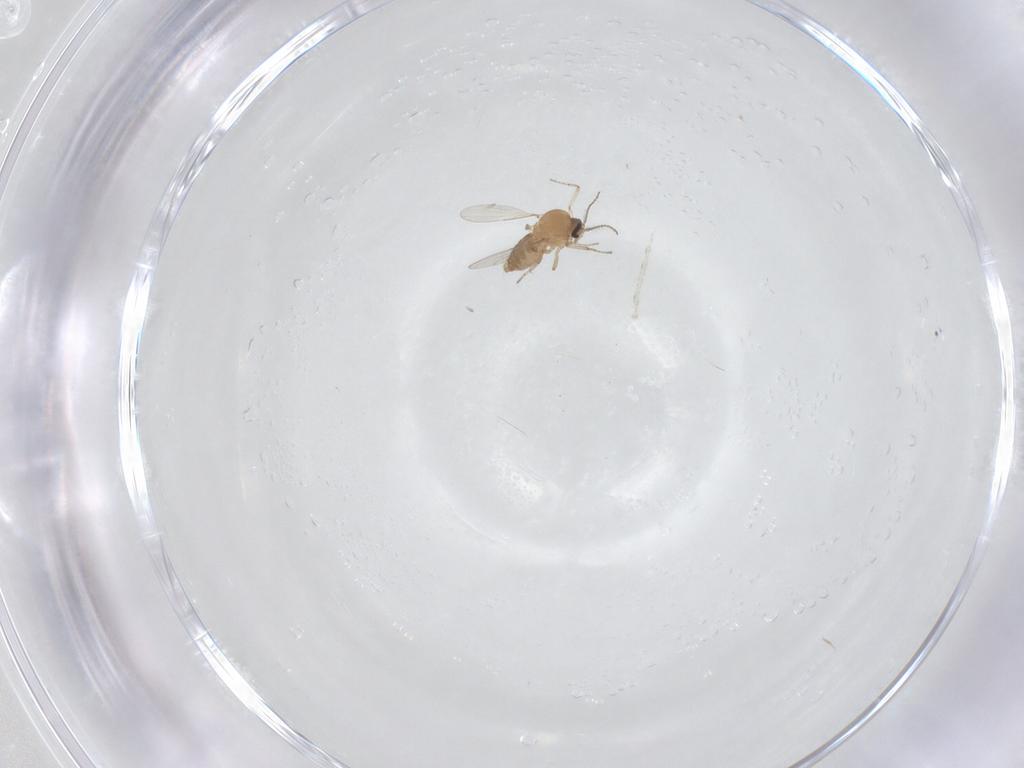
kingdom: Animalia
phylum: Arthropoda
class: Insecta
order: Diptera
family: Ceratopogonidae
